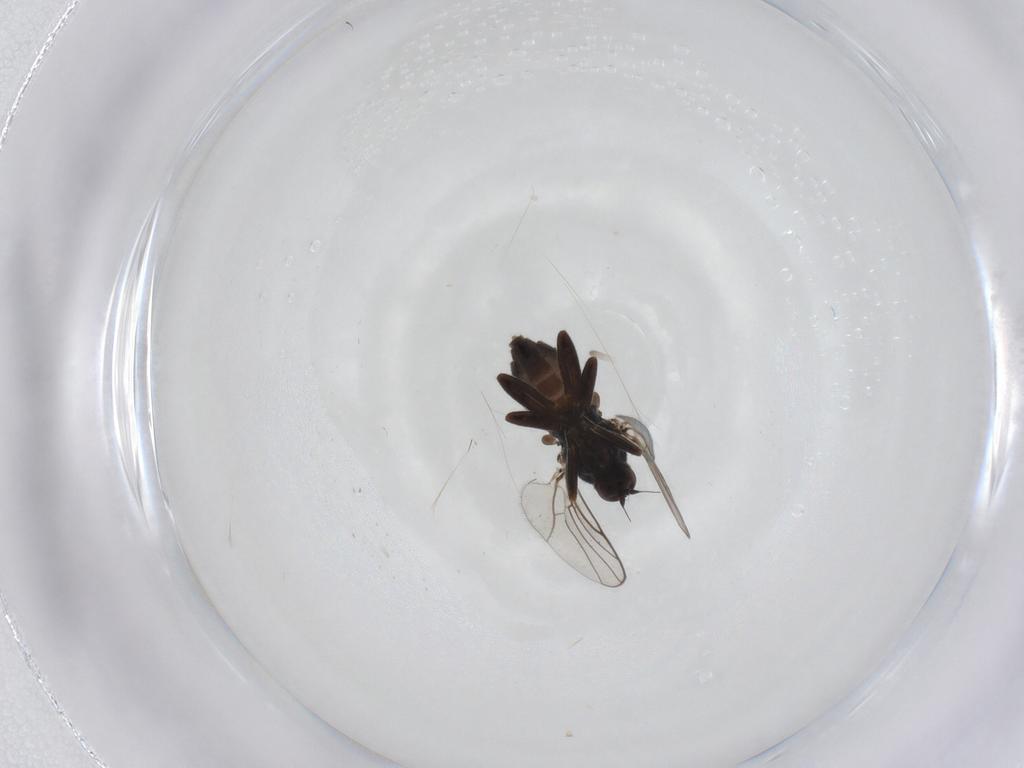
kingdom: Animalia
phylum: Arthropoda
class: Insecta
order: Diptera
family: Hybotidae
